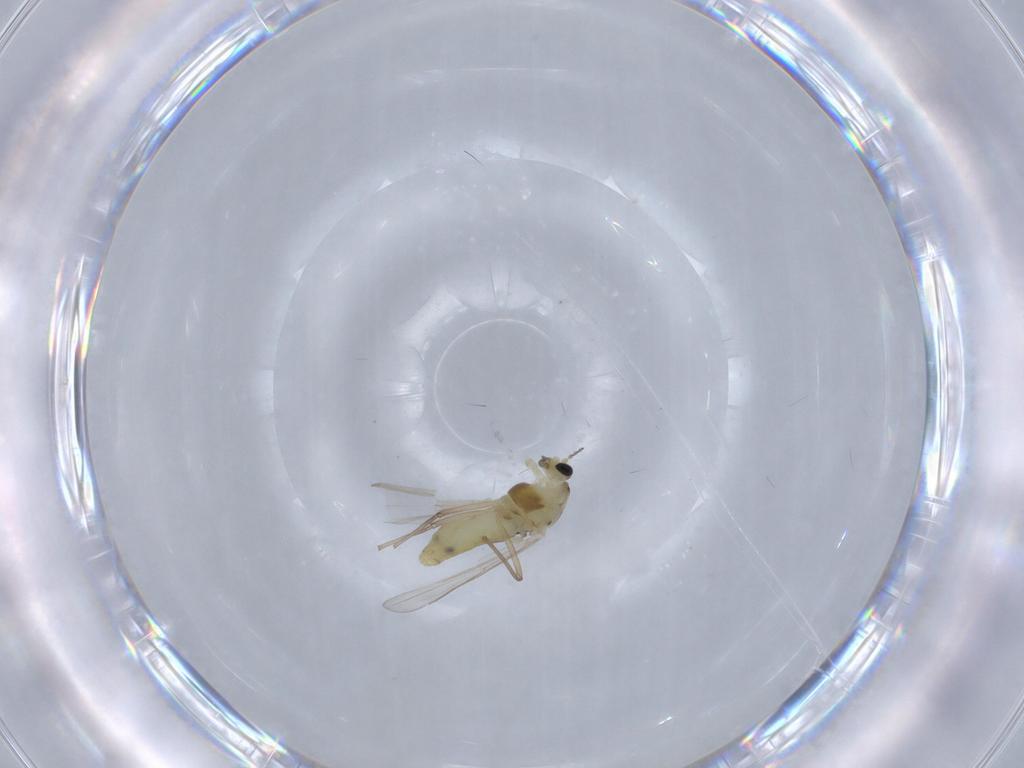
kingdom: Animalia
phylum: Arthropoda
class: Insecta
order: Diptera
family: Chironomidae
